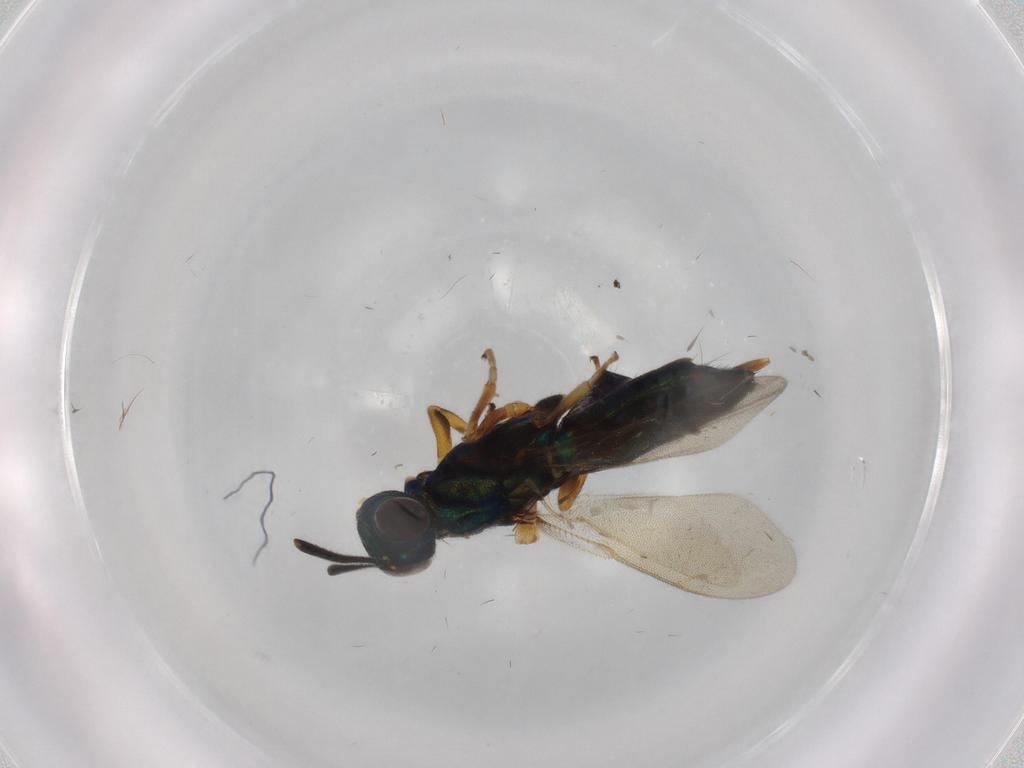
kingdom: Animalia
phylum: Arthropoda
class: Insecta
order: Hymenoptera
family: Eupelmidae
